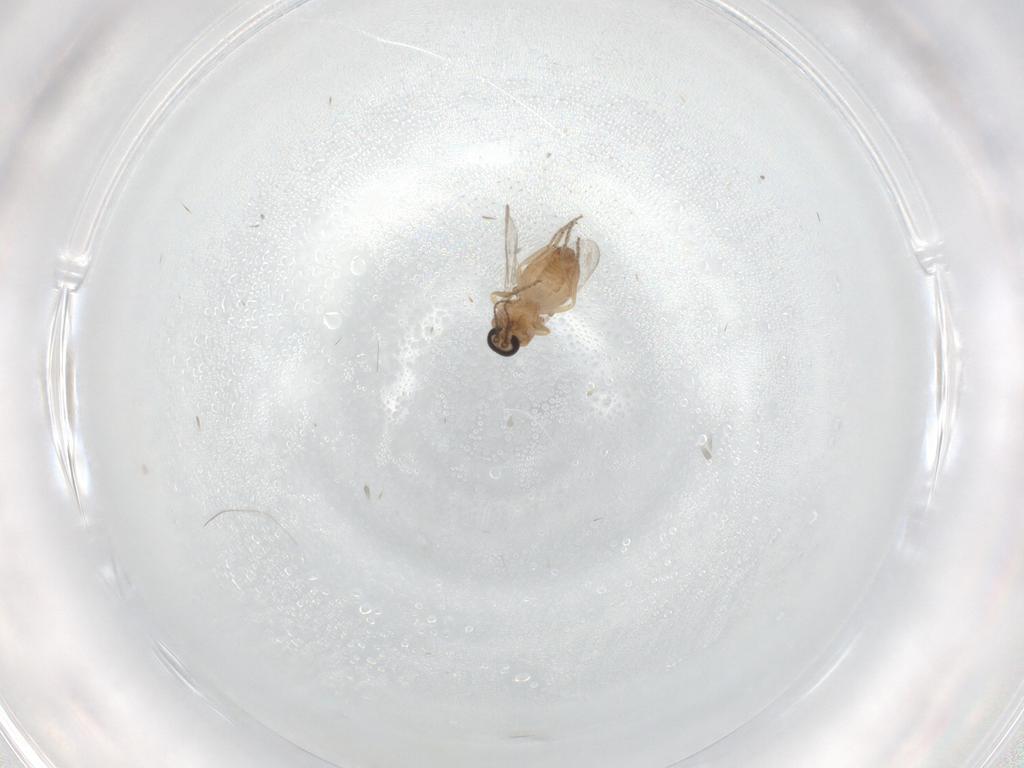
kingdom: Animalia
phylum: Arthropoda
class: Insecta
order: Diptera
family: Ceratopogonidae
